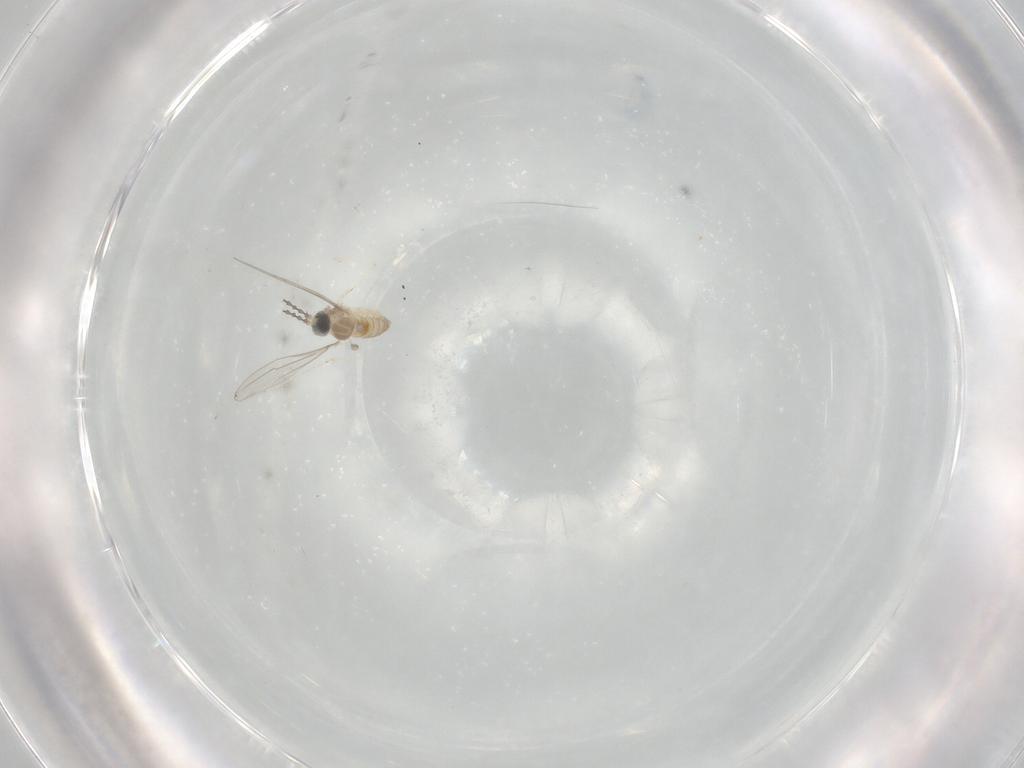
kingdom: Animalia
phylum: Arthropoda
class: Insecta
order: Diptera
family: Cecidomyiidae
